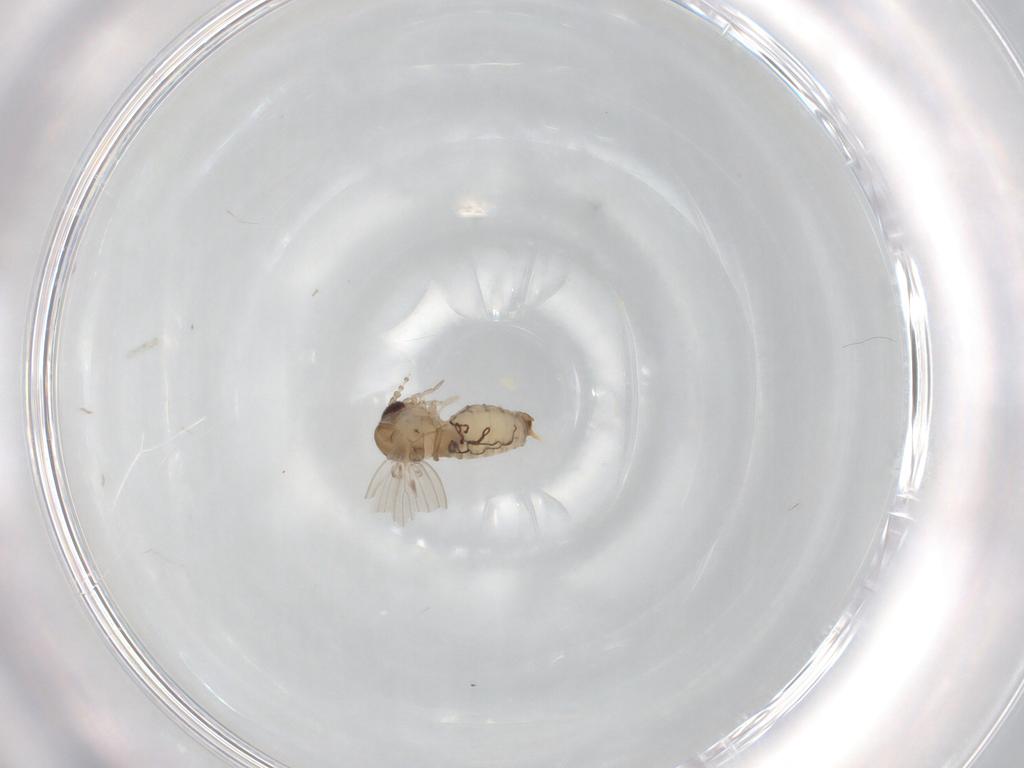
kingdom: Animalia
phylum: Arthropoda
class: Insecta
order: Diptera
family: Psychodidae
